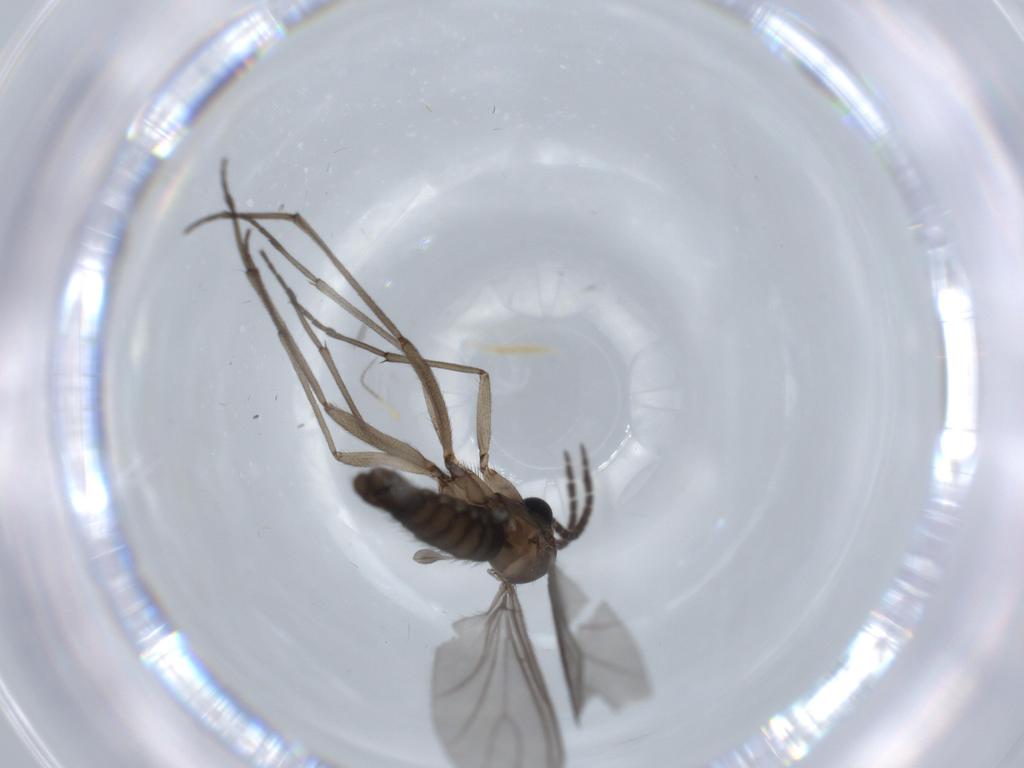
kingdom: Animalia
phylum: Arthropoda
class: Insecta
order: Diptera
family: Sciaridae
